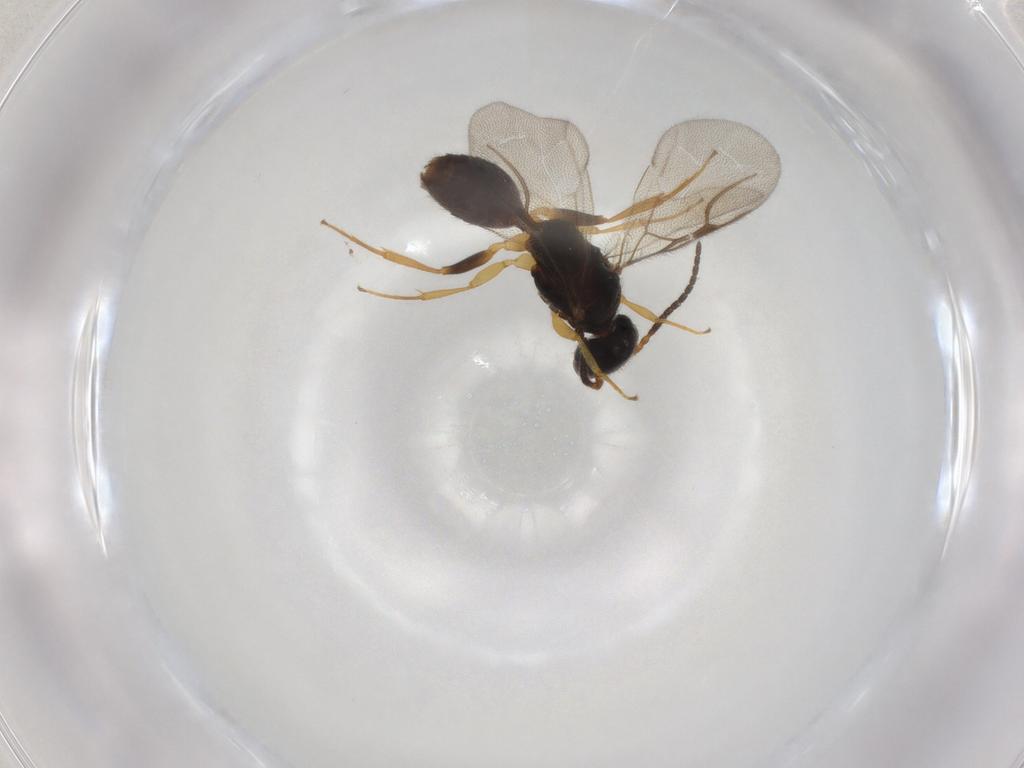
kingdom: Animalia
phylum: Arthropoda
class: Insecta
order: Hymenoptera
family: Bethylidae
